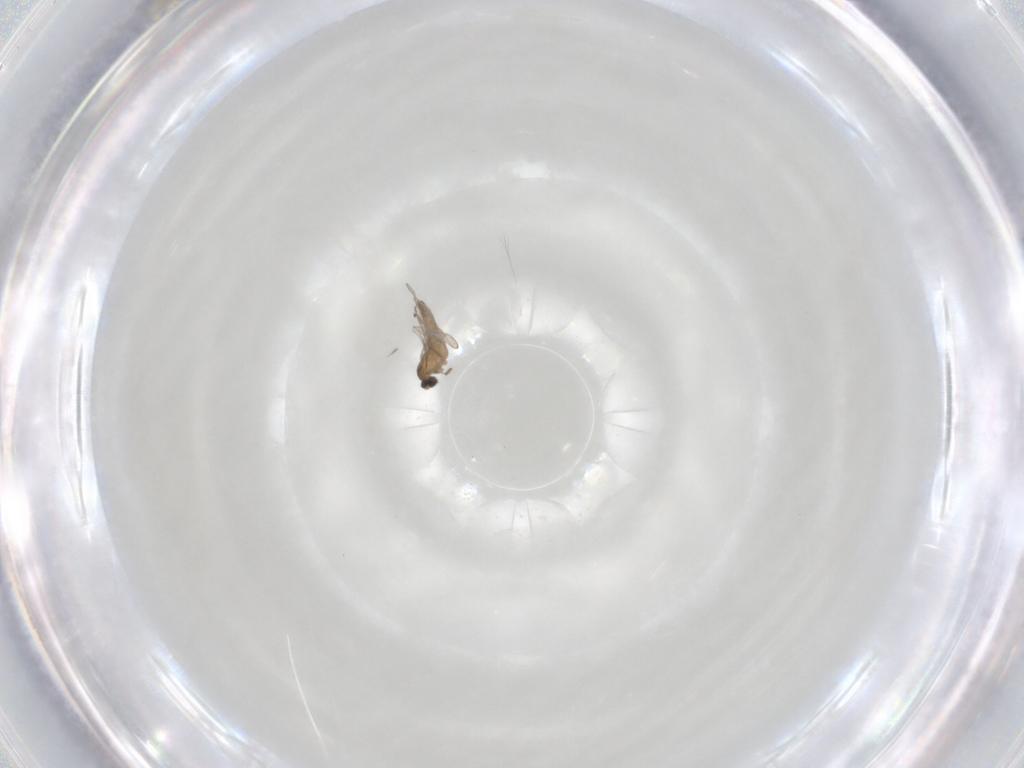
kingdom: Animalia
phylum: Arthropoda
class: Insecta
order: Diptera
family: Cecidomyiidae
